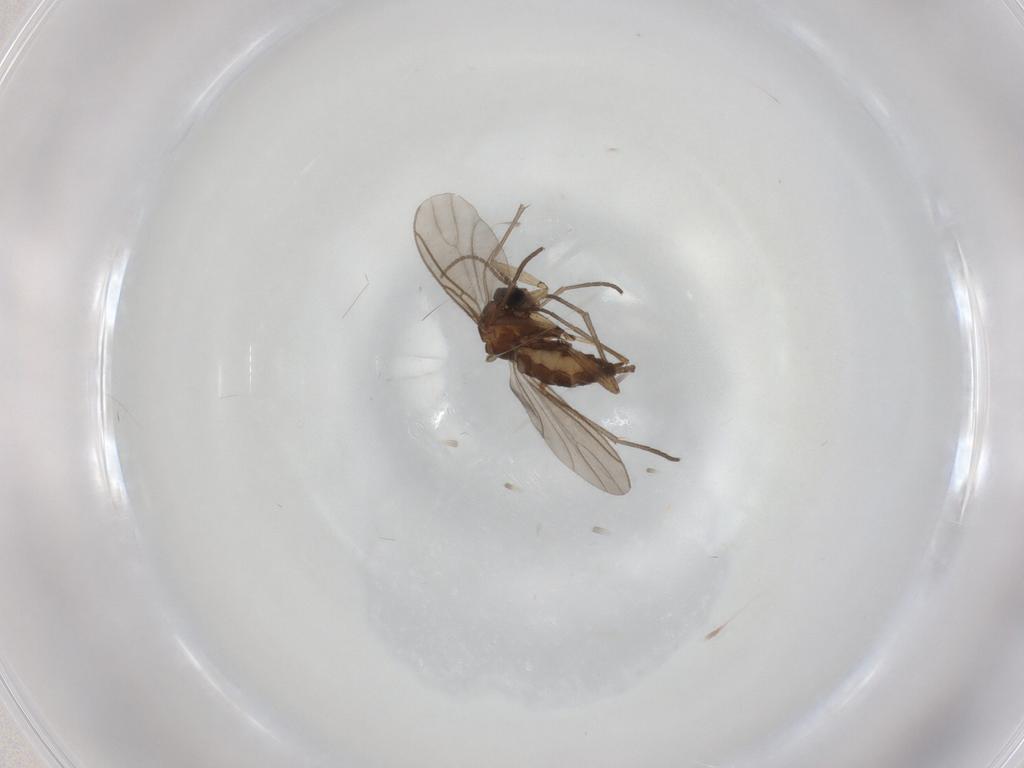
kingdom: Animalia
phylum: Arthropoda
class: Insecta
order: Diptera
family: Sciaridae
